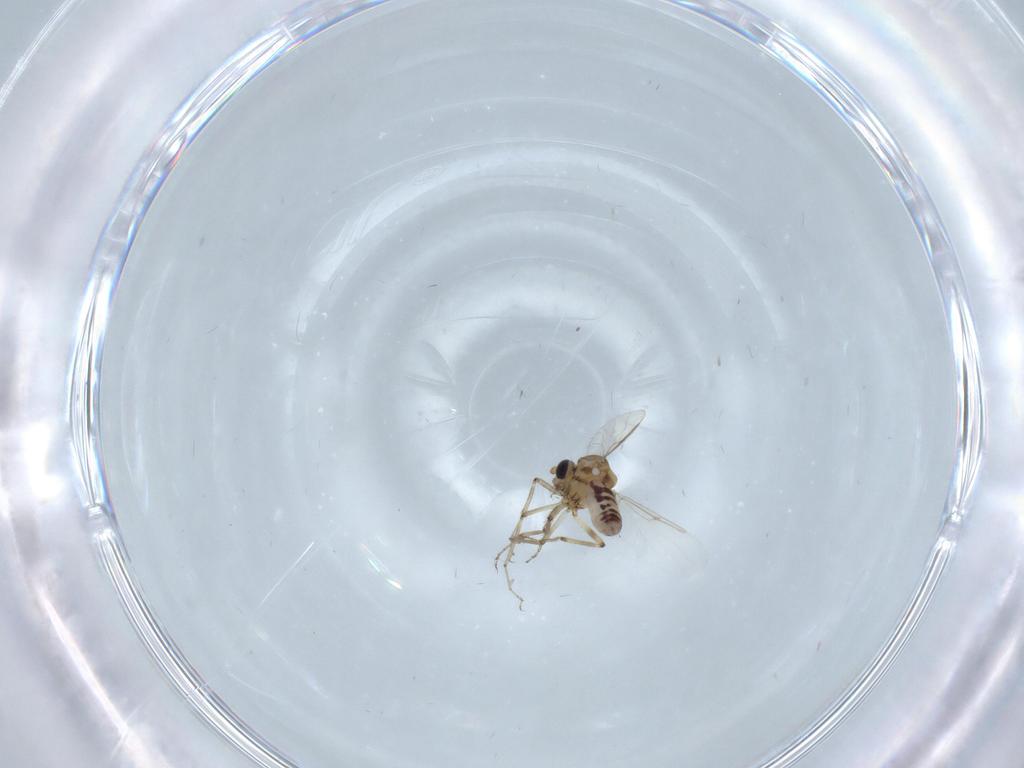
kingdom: Animalia
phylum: Arthropoda
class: Insecta
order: Diptera
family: Ceratopogonidae
